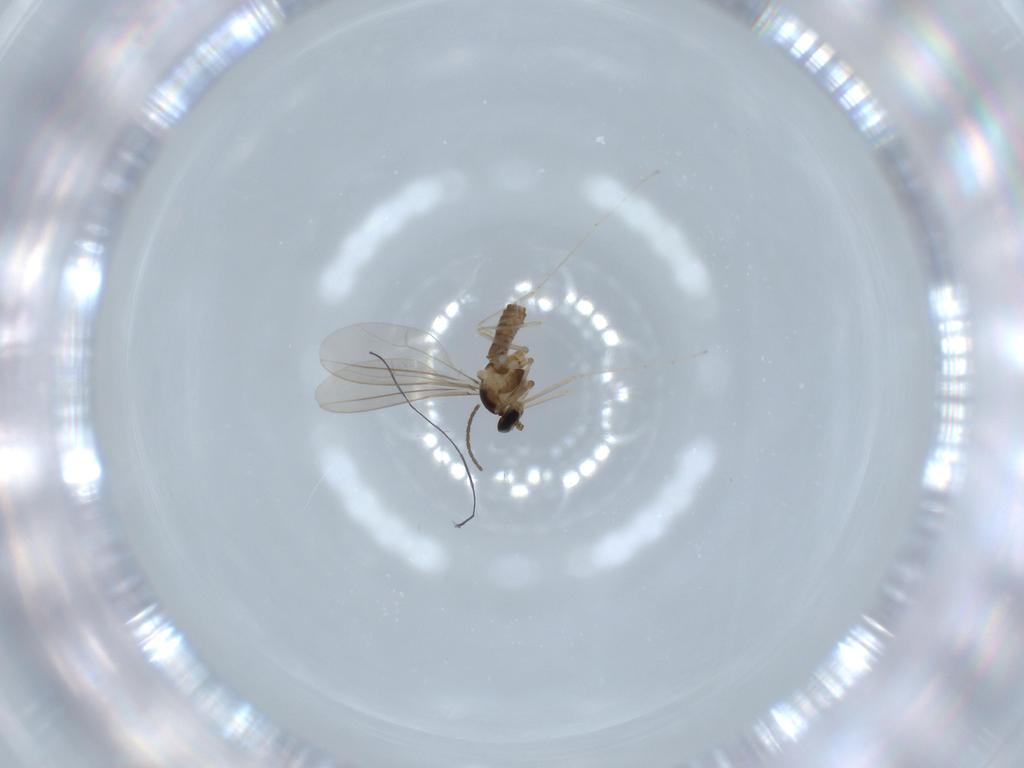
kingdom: Animalia
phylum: Arthropoda
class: Insecta
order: Diptera
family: Cecidomyiidae
